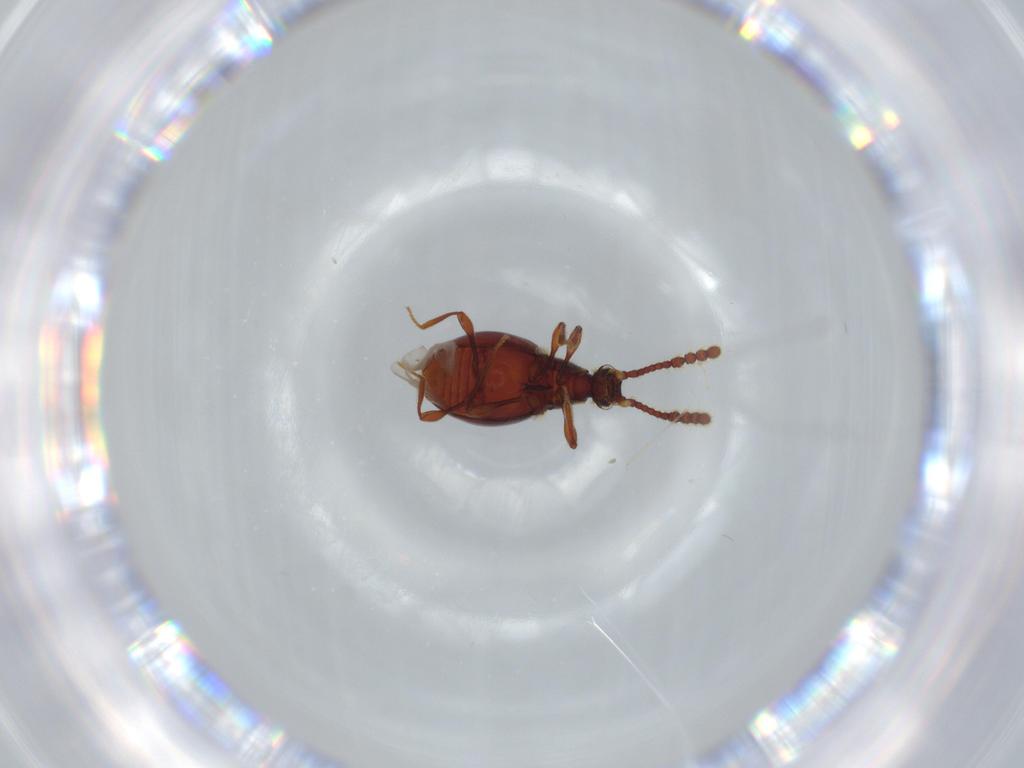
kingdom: Animalia
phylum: Arthropoda
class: Insecta
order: Coleoptera
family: Staphylinidae
